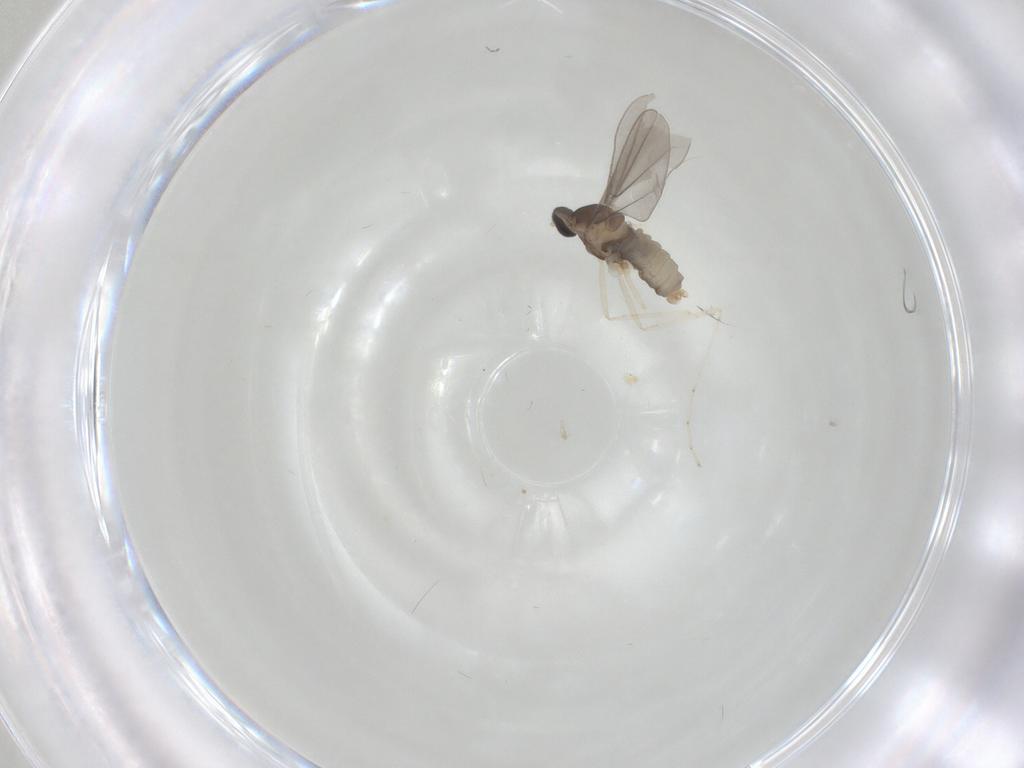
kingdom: Animalia
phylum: Arthropoda
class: Insecta
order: Diptera
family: Cecidomyiidae
